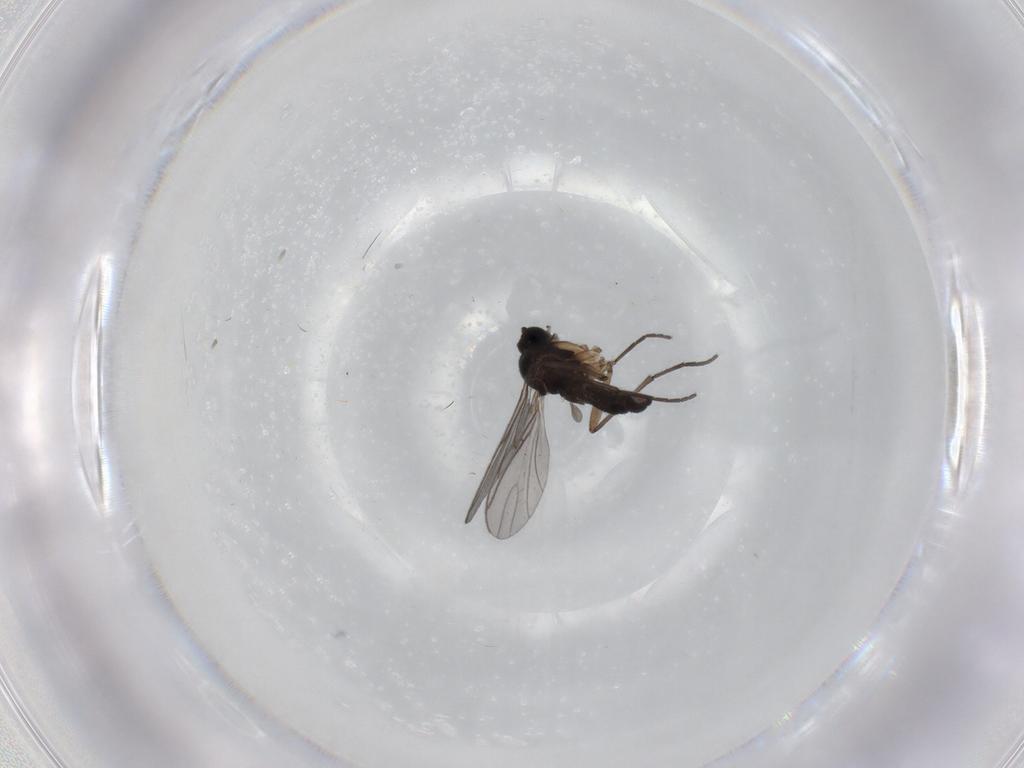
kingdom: Animalia
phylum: Arthropoda
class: Insecta
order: Diptera
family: Sciaridae
